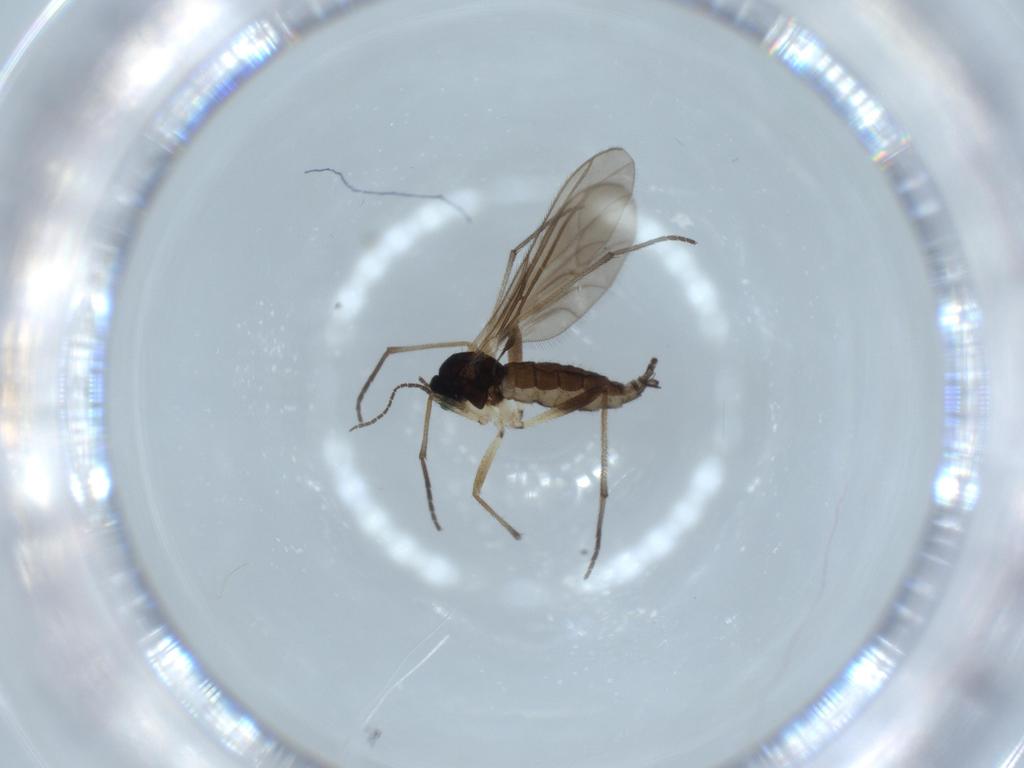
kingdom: Animalia
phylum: Arthropoda
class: Insecta
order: Diptera
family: Sciaridae
